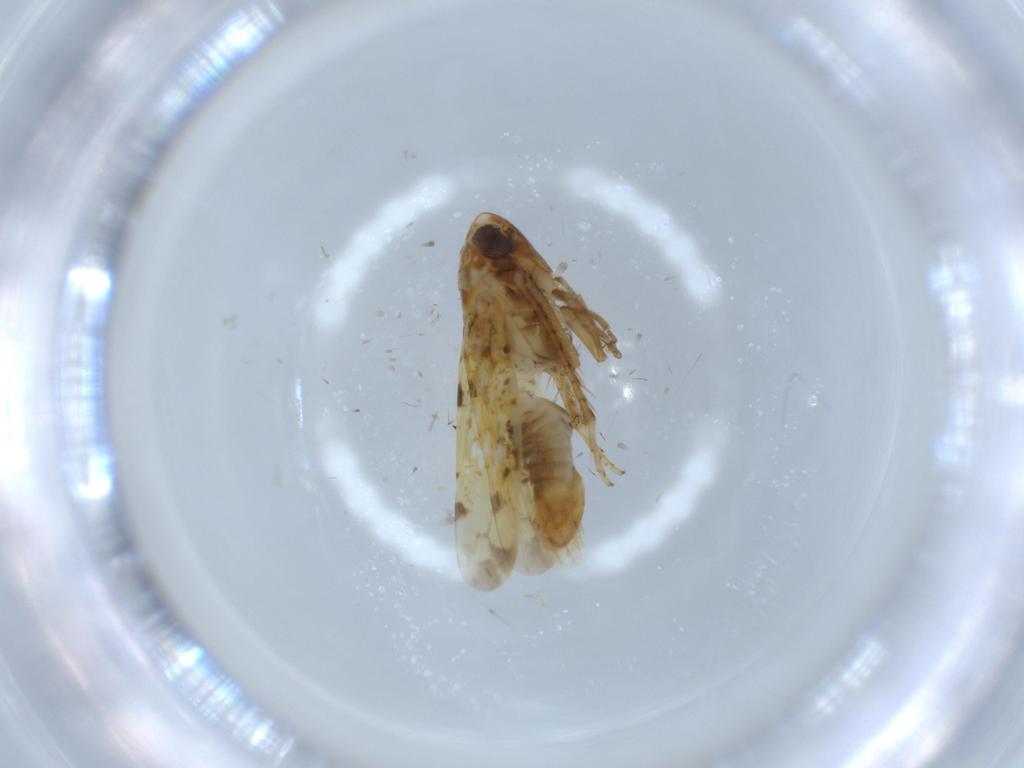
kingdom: Animalia
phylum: Arthropoda
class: Insecta
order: Hemiptera
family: Cicadellidae
